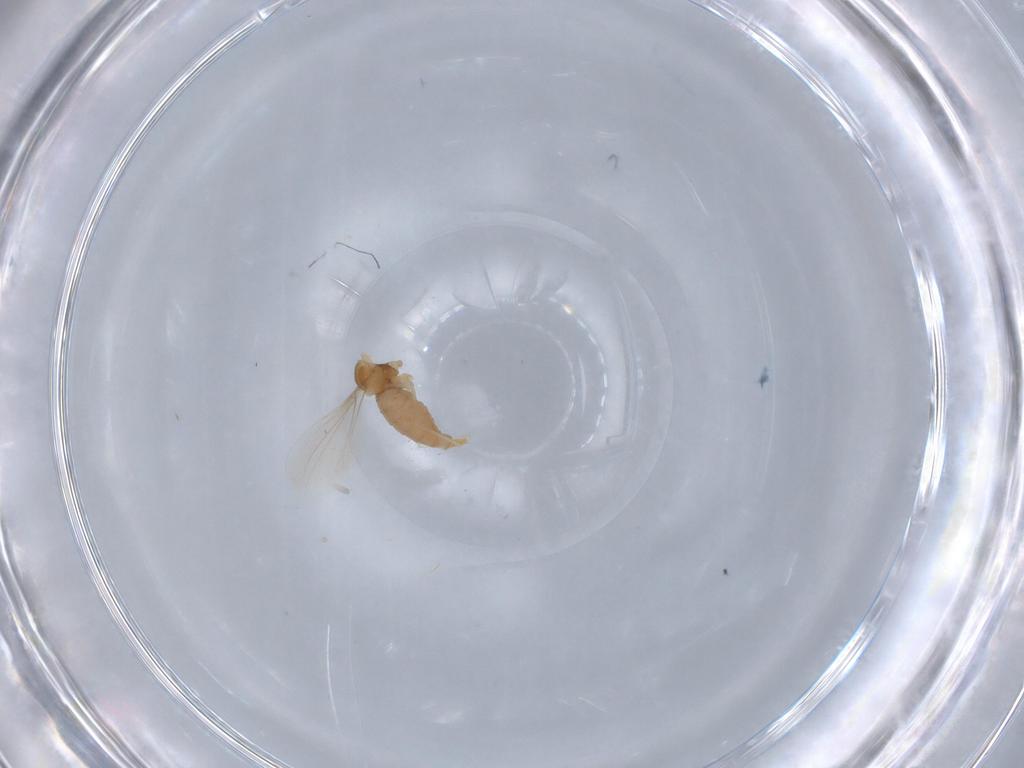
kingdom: Animalia
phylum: Arthropoda
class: Insecta
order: Diptera
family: Cecidomyiidae
